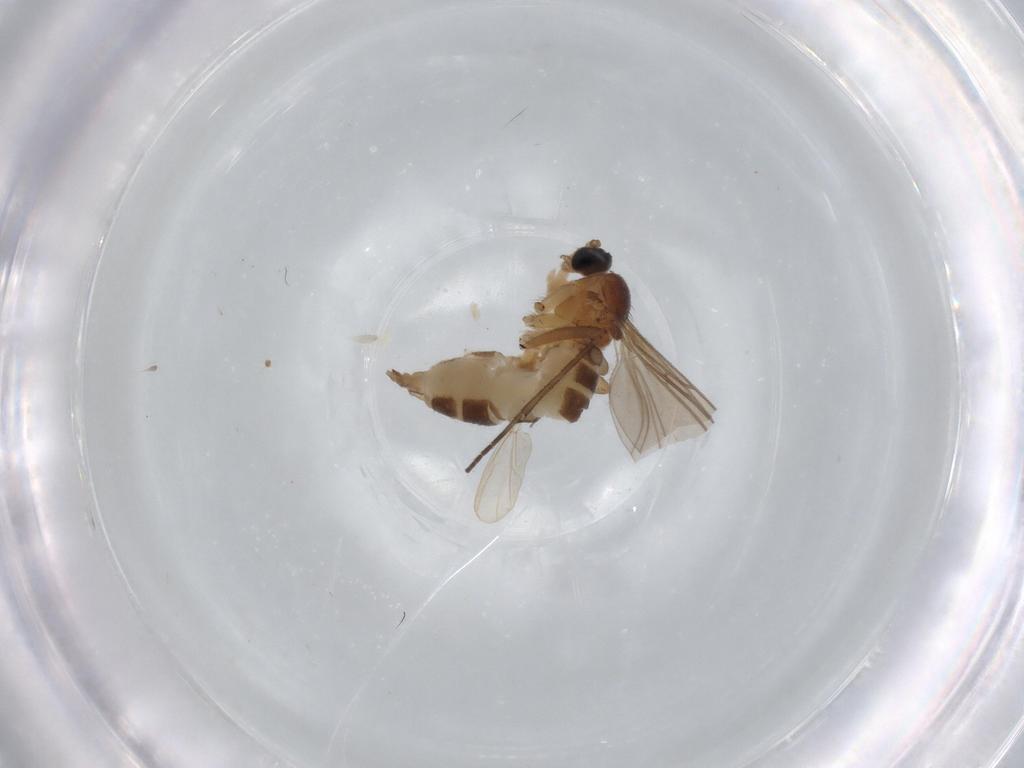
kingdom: Animalia
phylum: Arthropoda
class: Insecta
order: Diptera
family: Sciaridae
